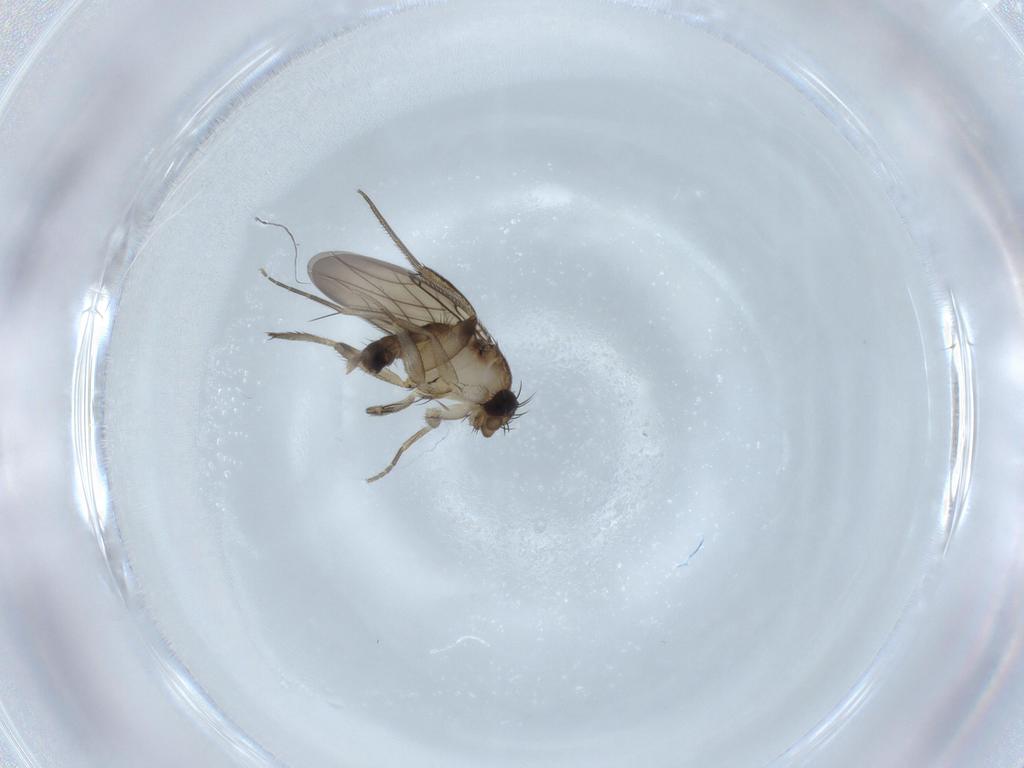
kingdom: Animalia
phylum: Arthropoda
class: Insecta
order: Diptera
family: Phoridae
